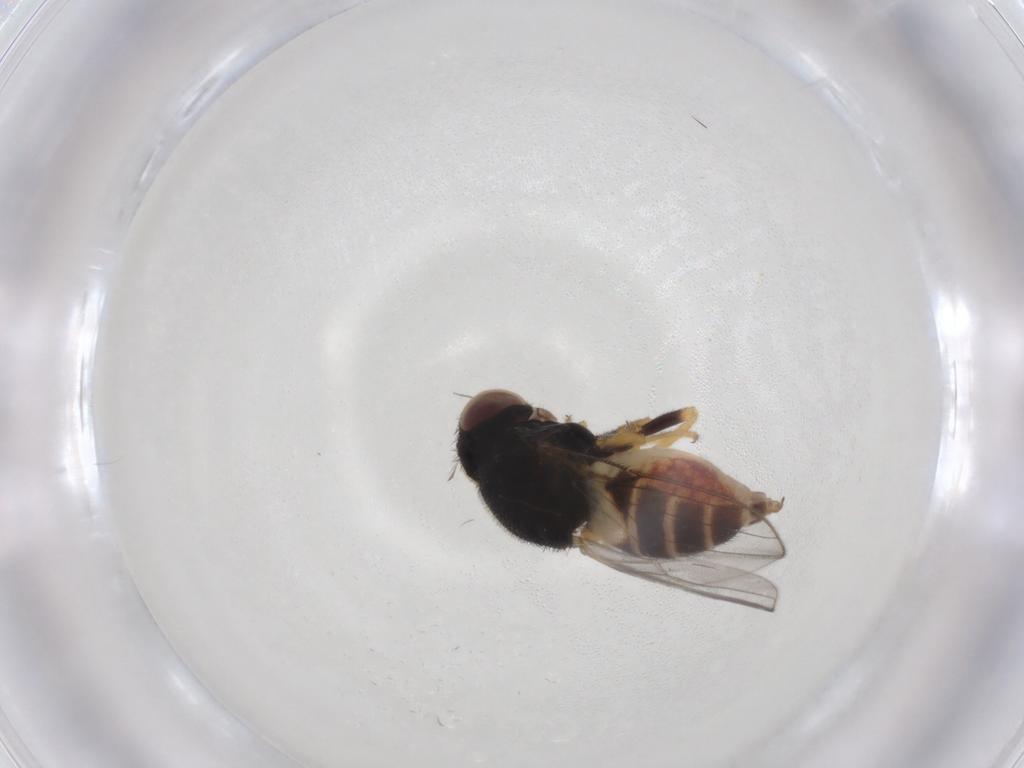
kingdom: Animalia
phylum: Arthropoda
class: Insecta
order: Diptera
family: Chloropidae
